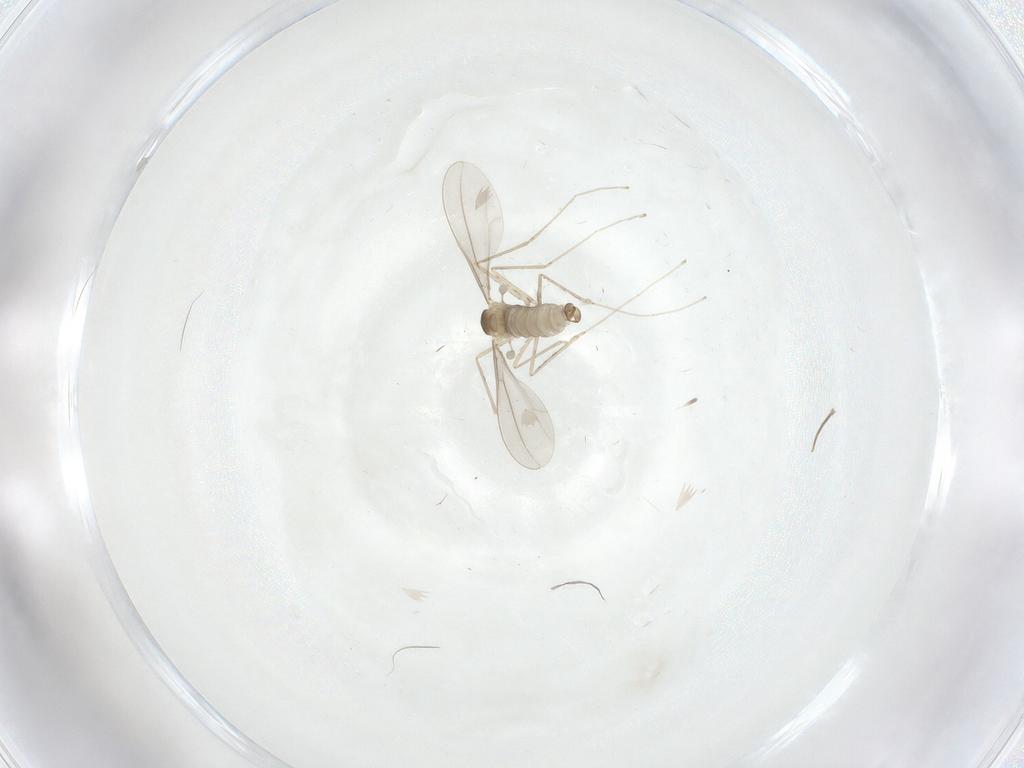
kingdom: Animalia
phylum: Arthropoda
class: Insecta
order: Diptera
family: Cecidomyiidae
